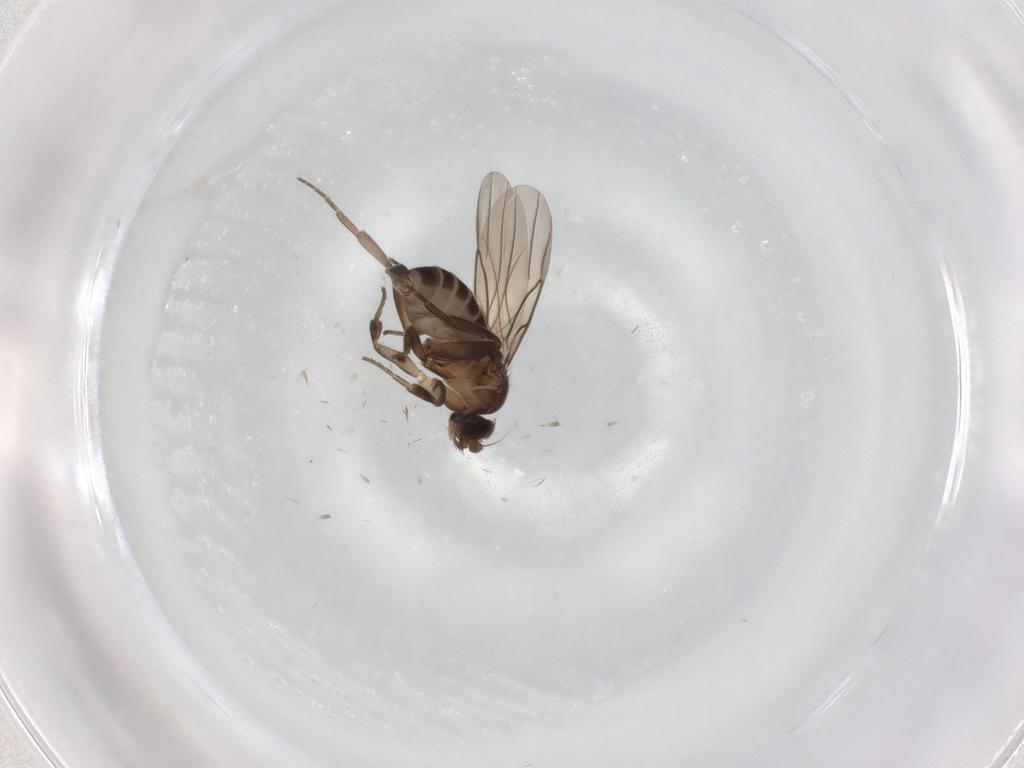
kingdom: Animalia
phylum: Arthropoda
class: Insecta
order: Diptera
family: Phoridae
